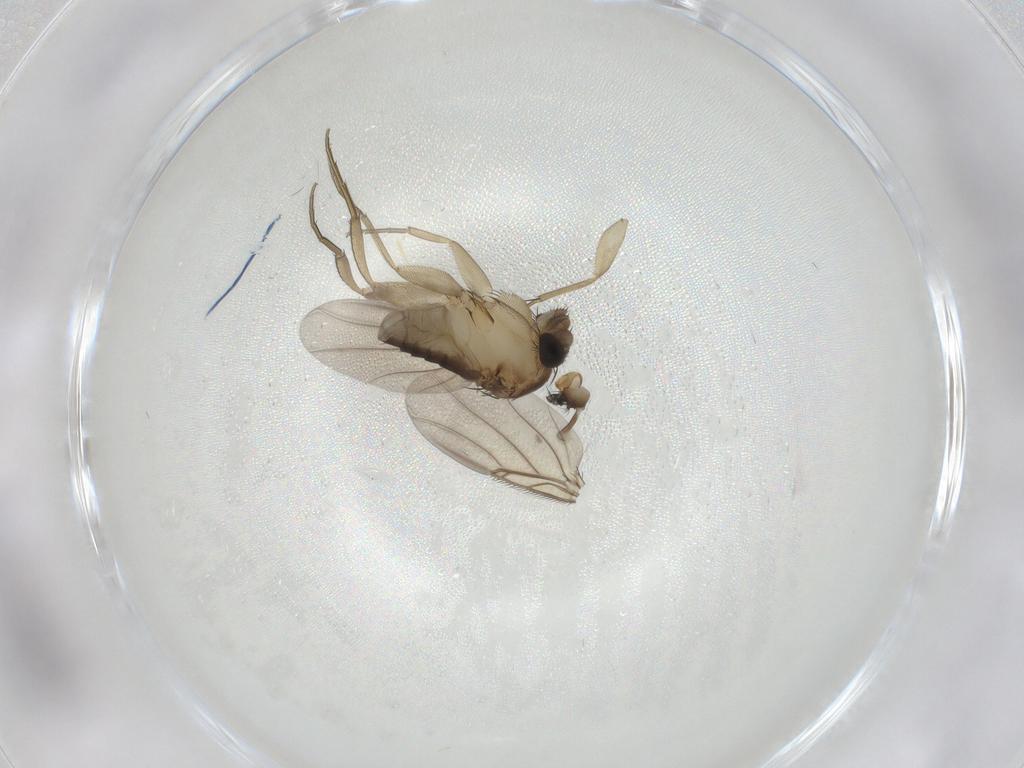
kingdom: Animalia
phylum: Arthropoda
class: Insecta
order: Diptera
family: Phoridae
